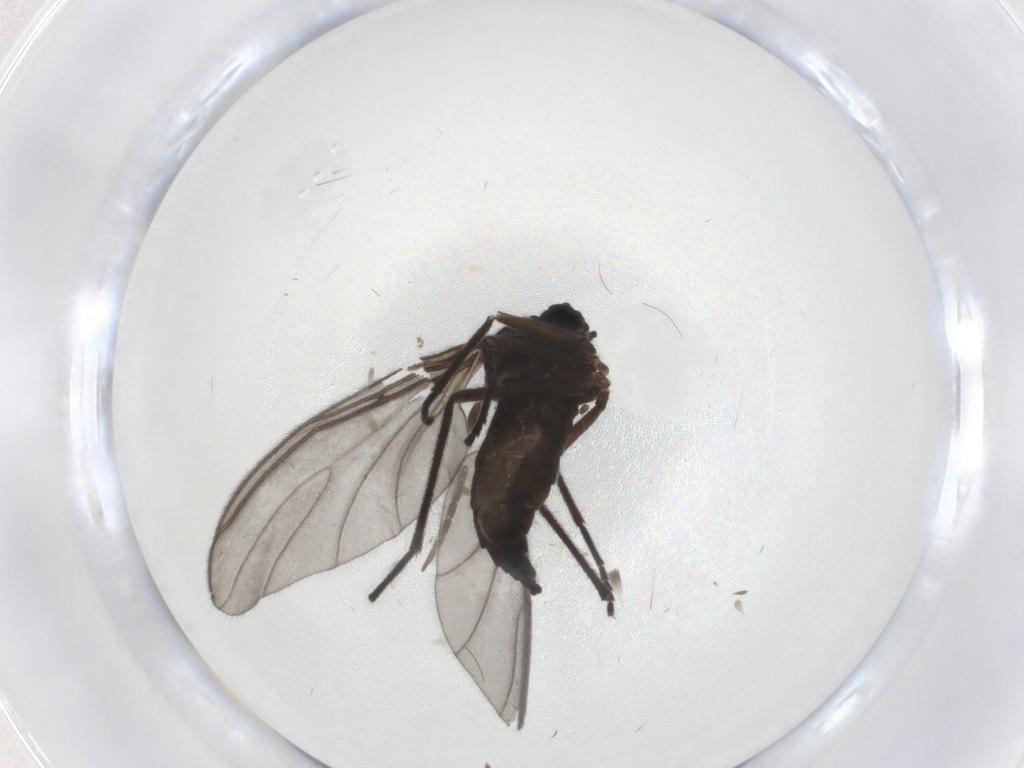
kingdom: Animalia
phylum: Arthropoda
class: Insecta
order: Diptera
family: Sciaridae
